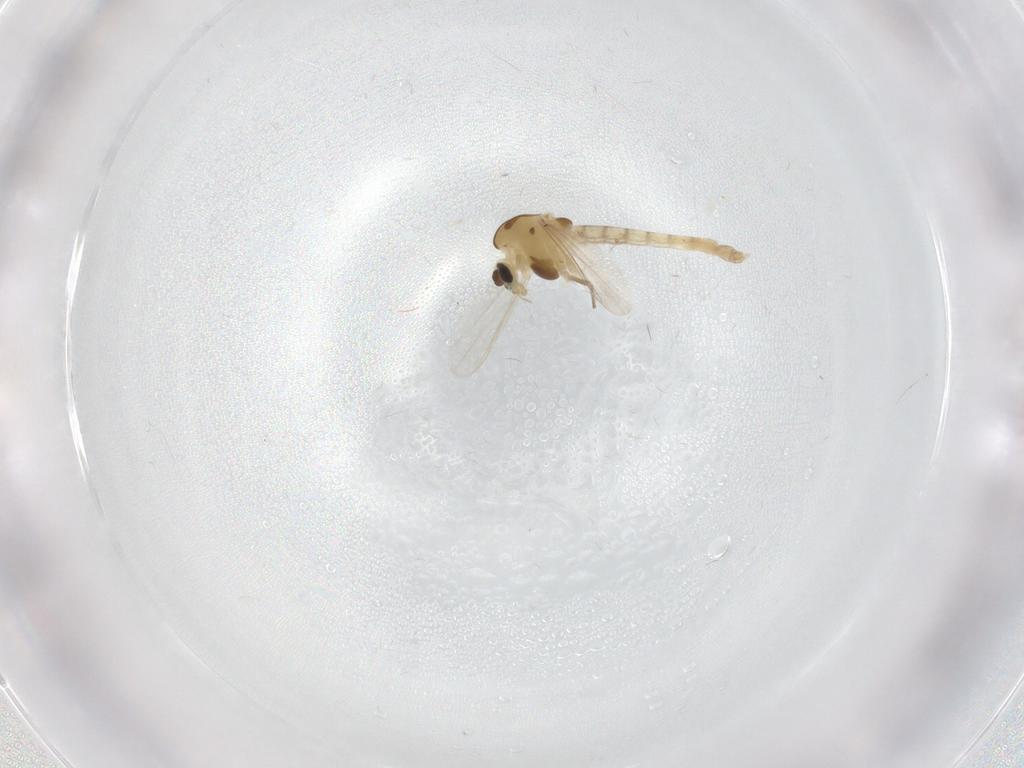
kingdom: Animalia
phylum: Arthropoda
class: Insecta
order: Diptera
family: Chironomidae
